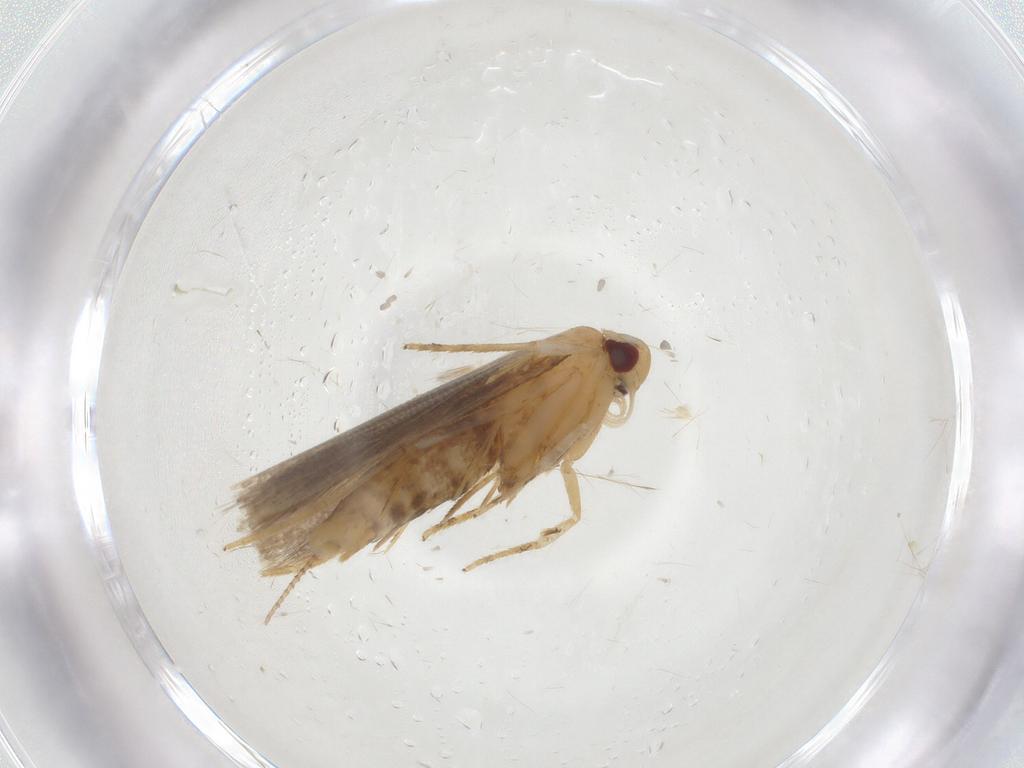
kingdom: Animalia
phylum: Arthropoda
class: Insecta
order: Lepidoptera
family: Cosmopterigidae
